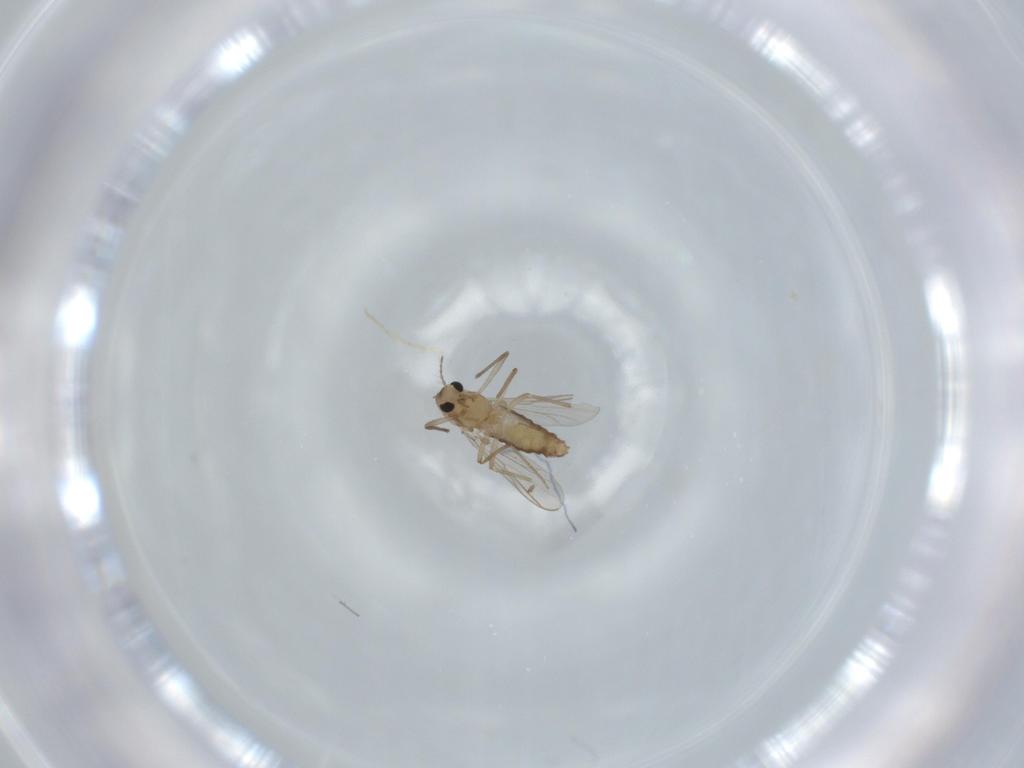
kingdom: Animalia
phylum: Arthropoda
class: Insecta
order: Diptera
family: Chironomidae
